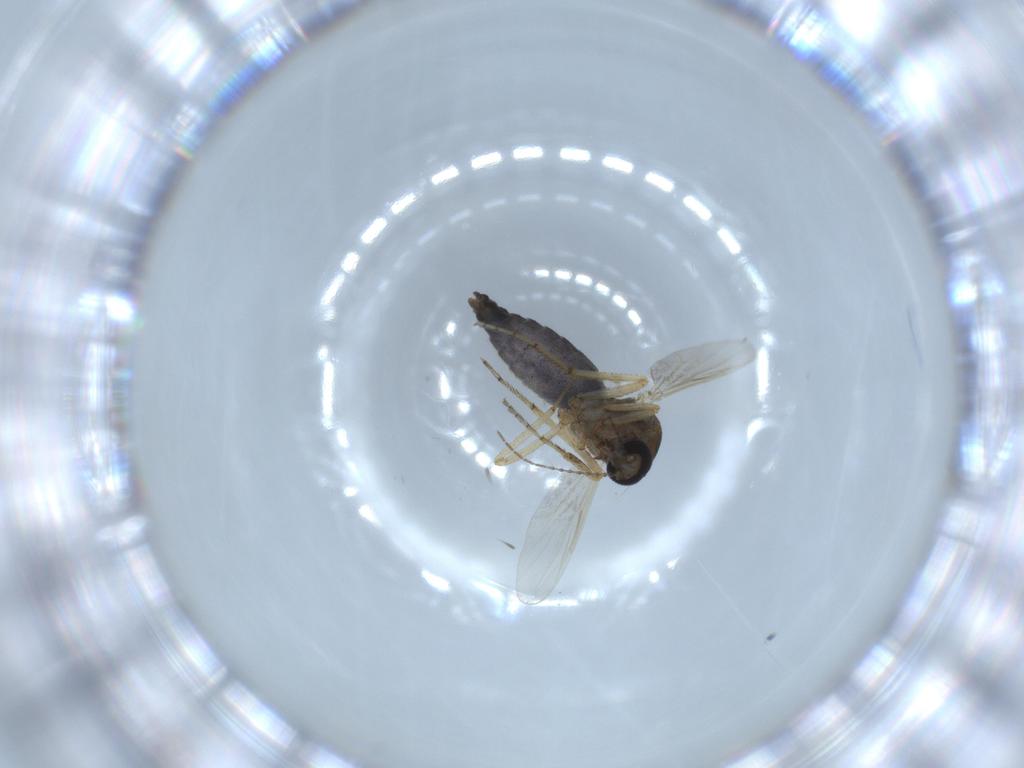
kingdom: Animalia
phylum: Arthropoda
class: Insecta
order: Diptera
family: Ceratopogonidae
